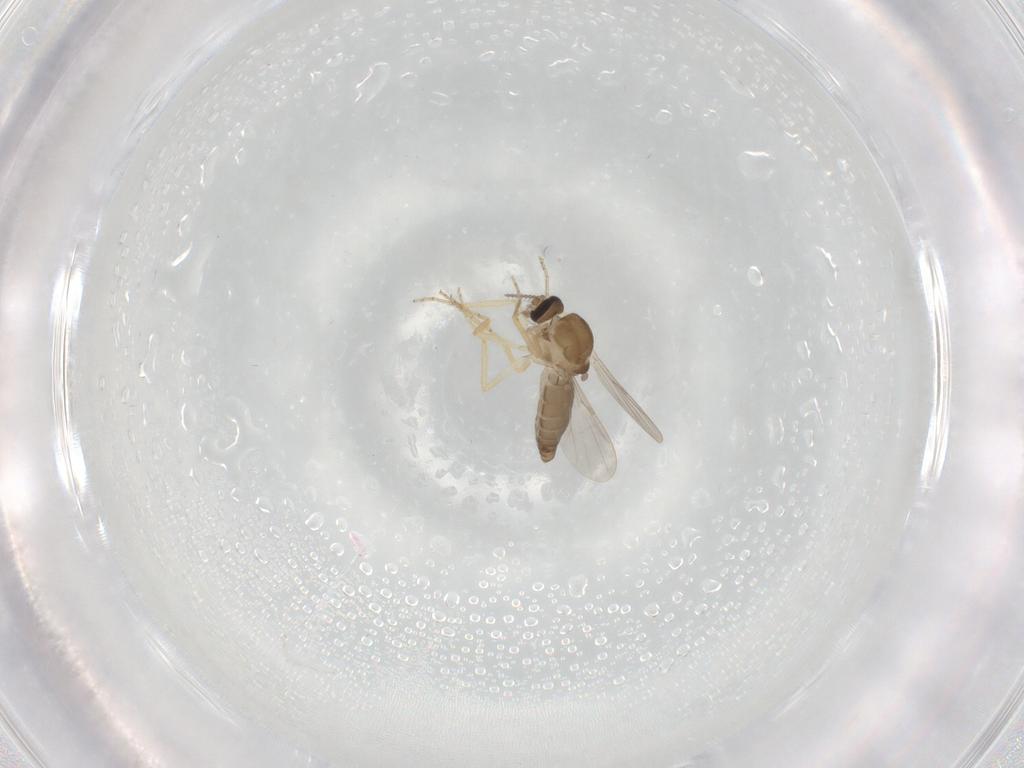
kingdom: Animalia
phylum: Arthropoda
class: Insecta
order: Diptera
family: Ceratopogonidae
